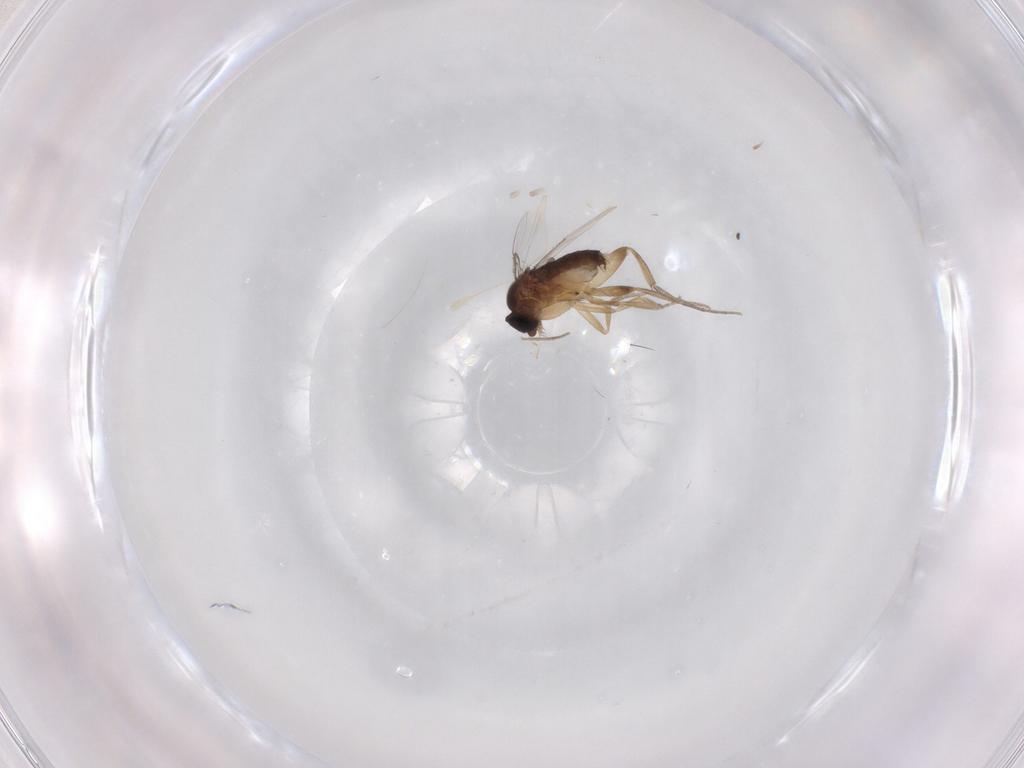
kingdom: Animalia
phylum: Arthropoda
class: Insecta
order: Diptera
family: Phoridae
